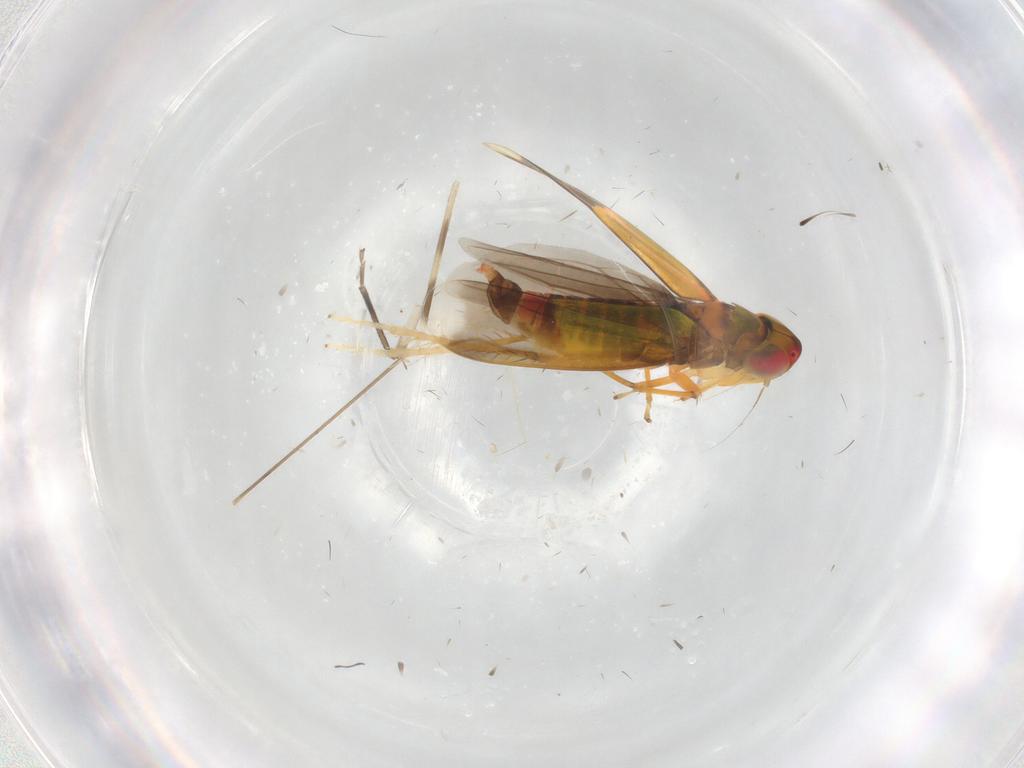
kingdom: Animalia
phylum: Arthropoda
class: Insecta
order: Hemiptera
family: Cicadellidae
